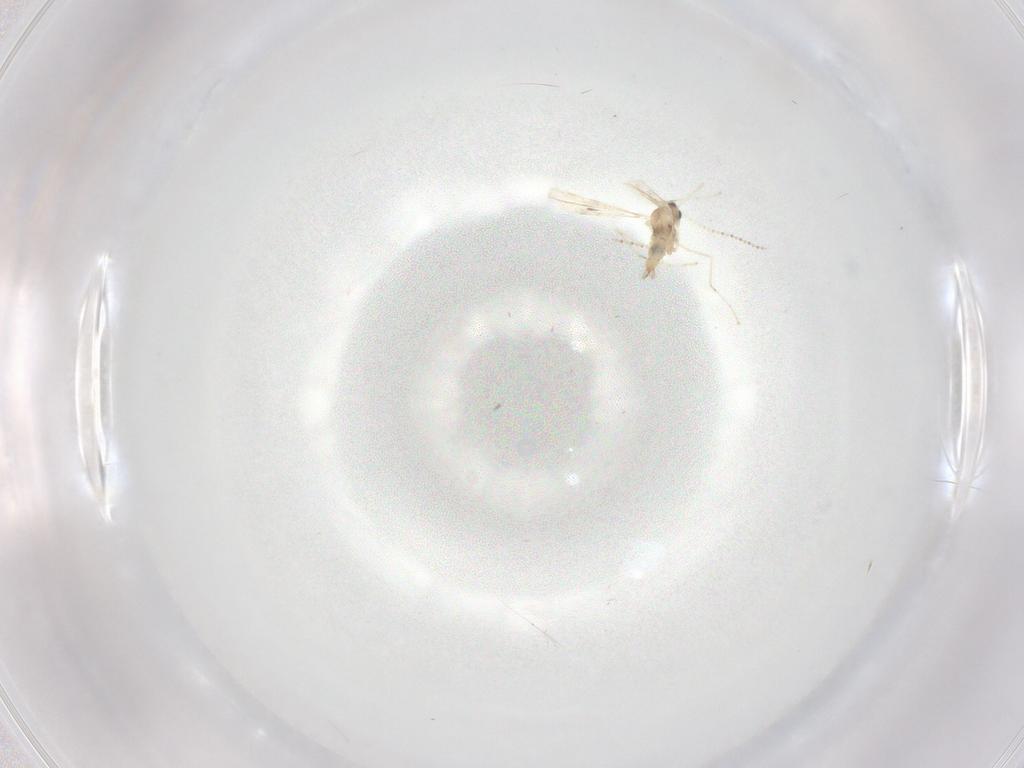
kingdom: Animalia
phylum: Arthropoda
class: Insecta
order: Diptera
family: Cecidomyiidae
